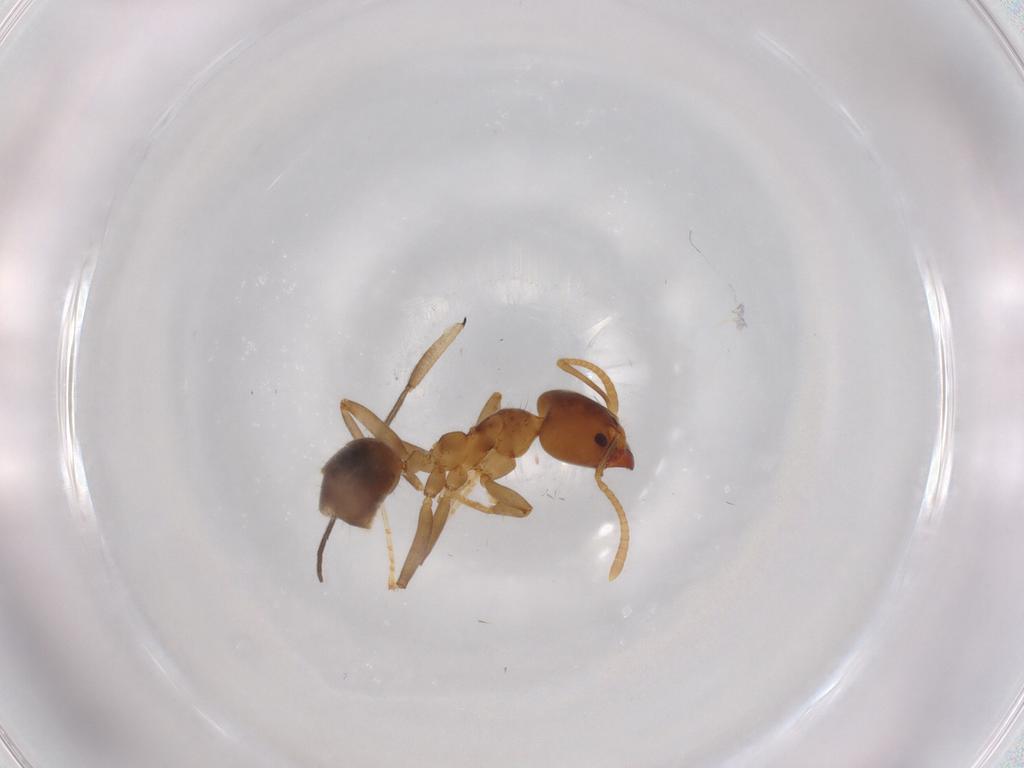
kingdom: Animalia
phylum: Arthropoda
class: Insecta
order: Hymenoptera
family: Formicidae
